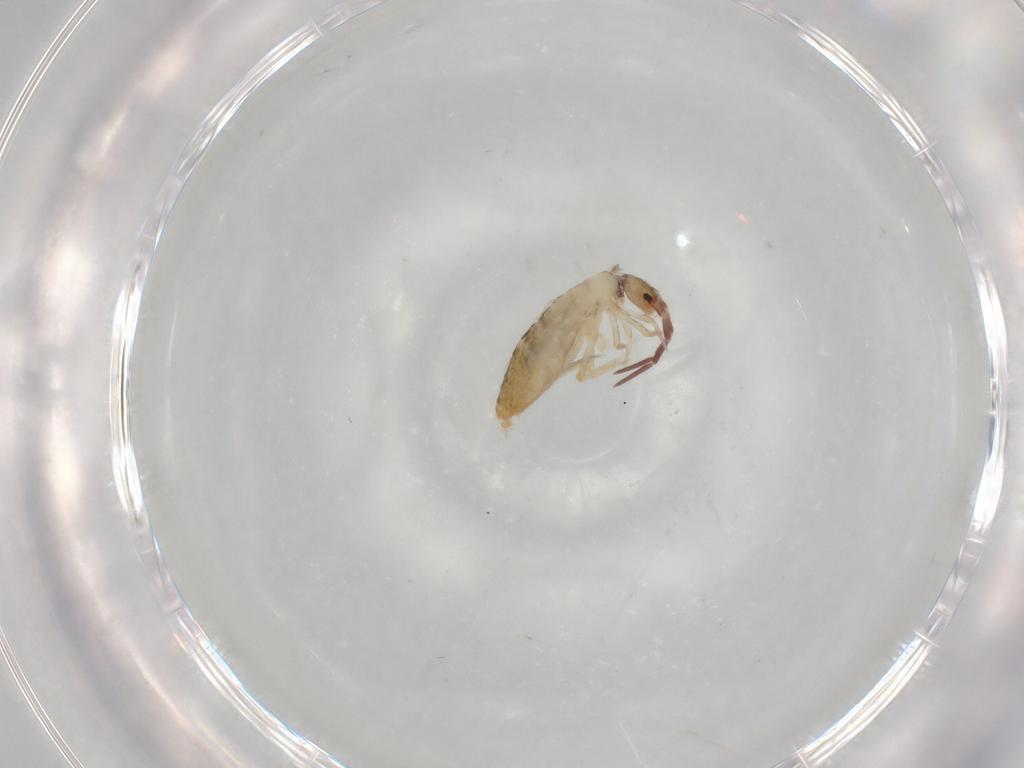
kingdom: Animalia
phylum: Arthropoda
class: Collembola
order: Entomobryomorpha
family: Entomobryidae
